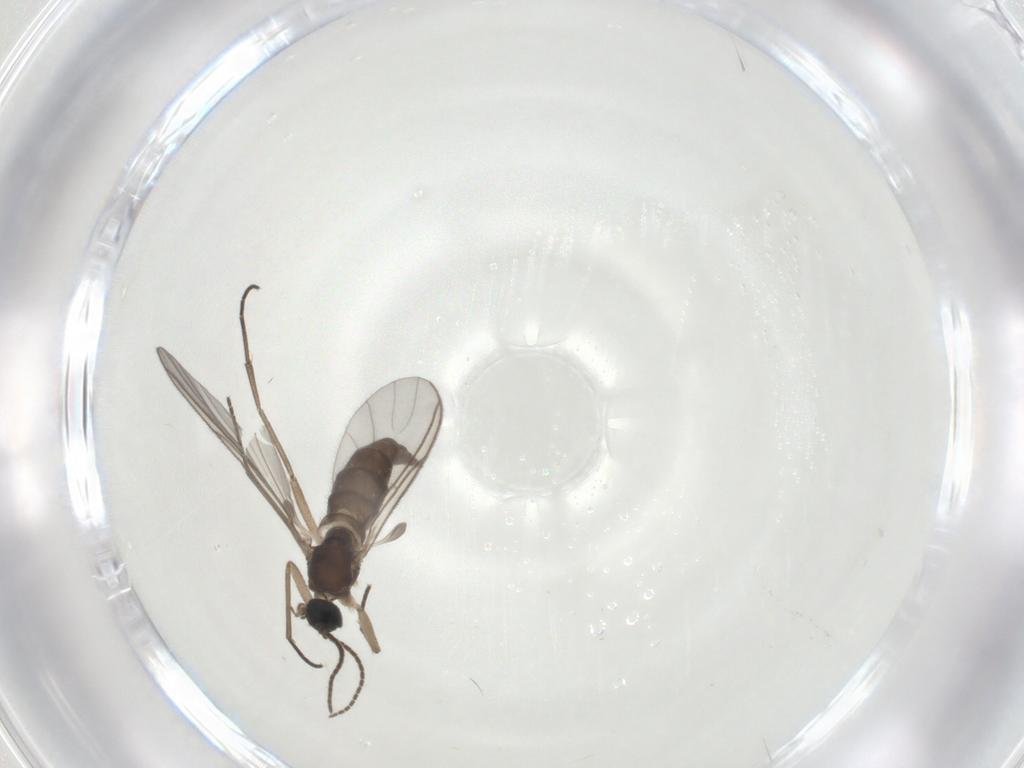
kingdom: Animalia
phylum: Arthropoda
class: Insecta
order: Diptera
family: Sciaridae
